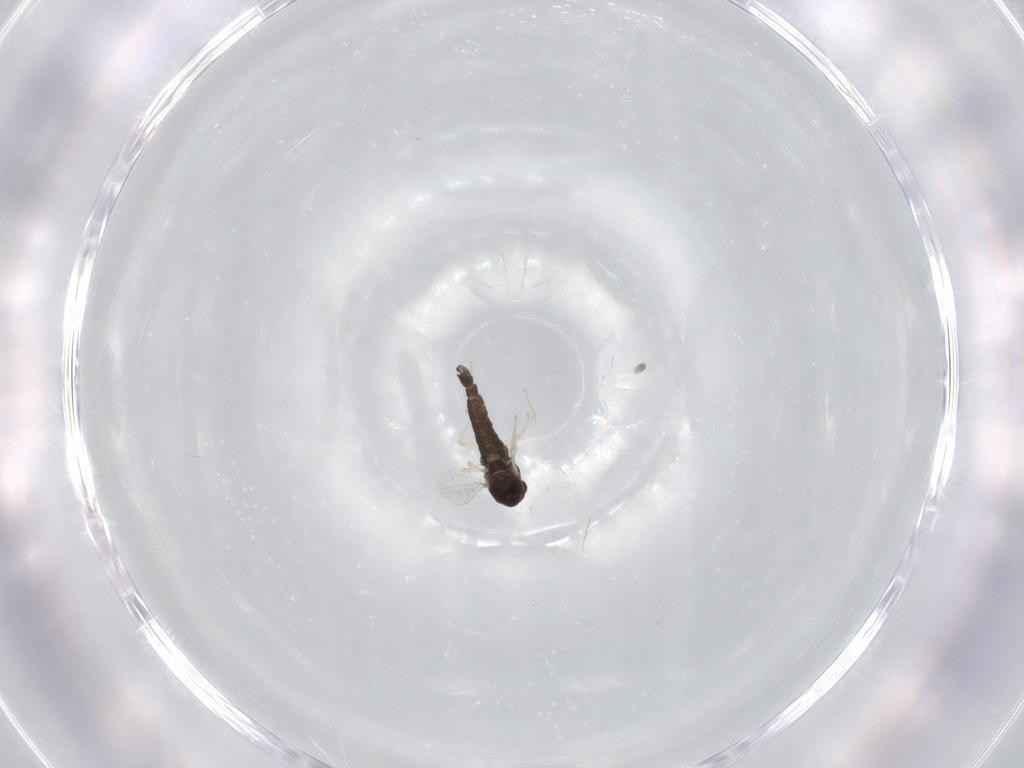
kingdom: Animalia
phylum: Arthropoda
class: Insecta
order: Diptera
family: Chironomidae
